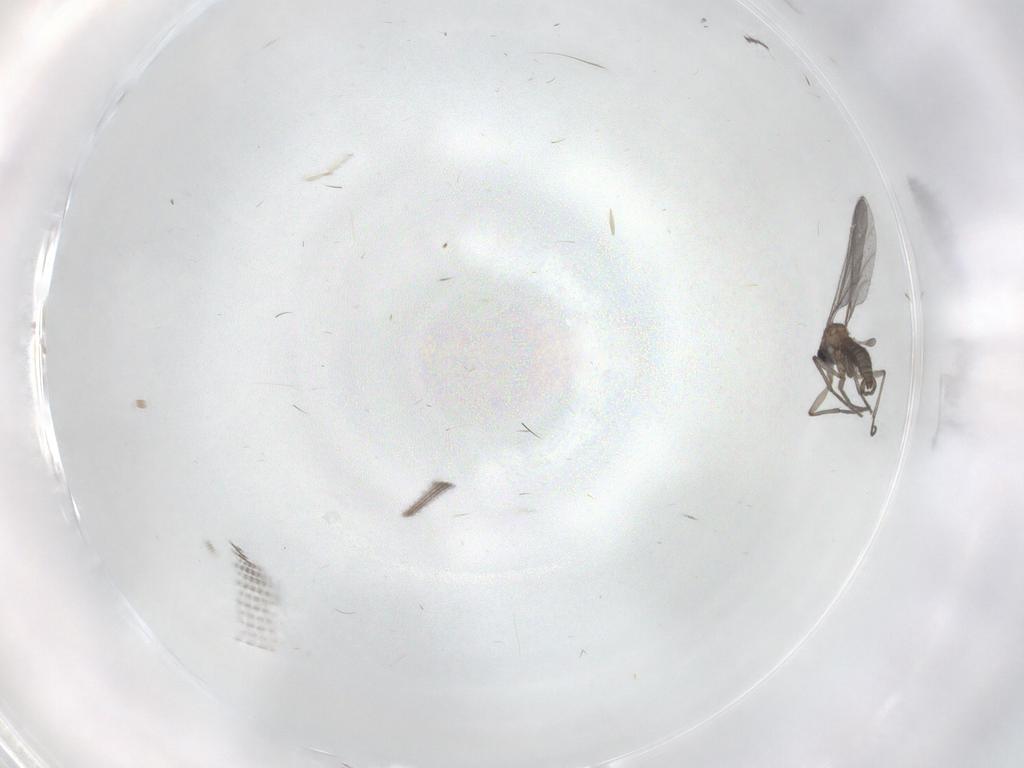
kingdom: Animalia
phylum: Arthropoda
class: Insecta
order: Diptera
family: Sciaridae
